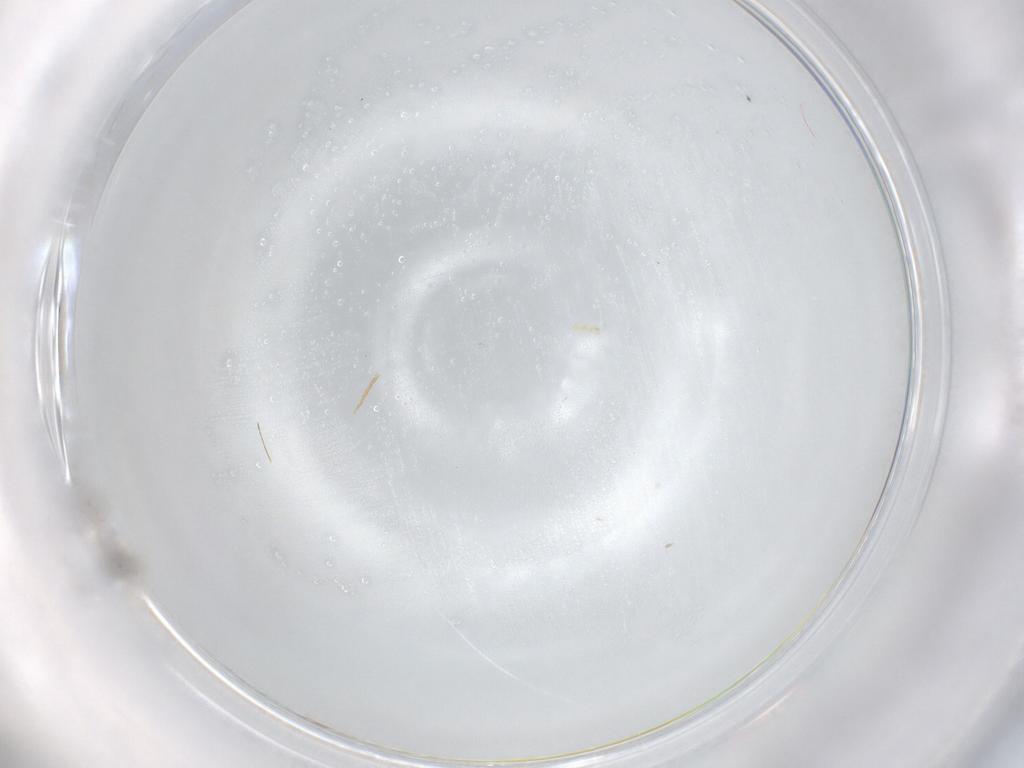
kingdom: Animalia
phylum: Arthropoda
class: Insecta
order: Hymenoptera
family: Mymaridae
